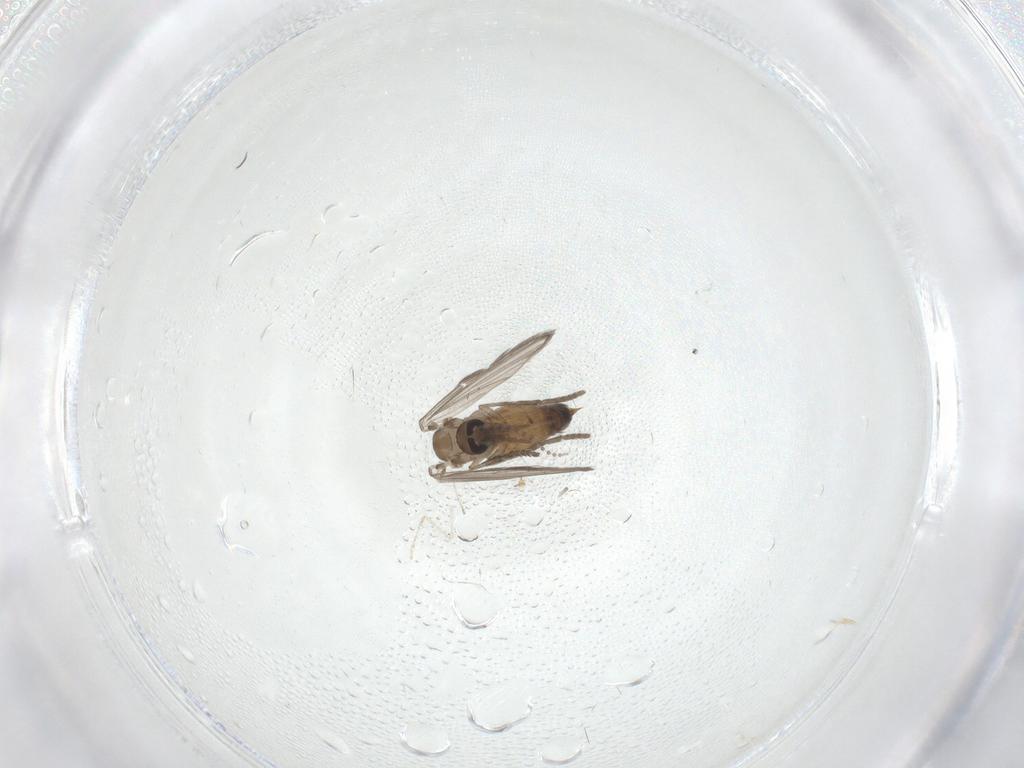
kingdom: Animalia
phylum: Arthropoda
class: Insecta
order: Diptera
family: Psychodidae
